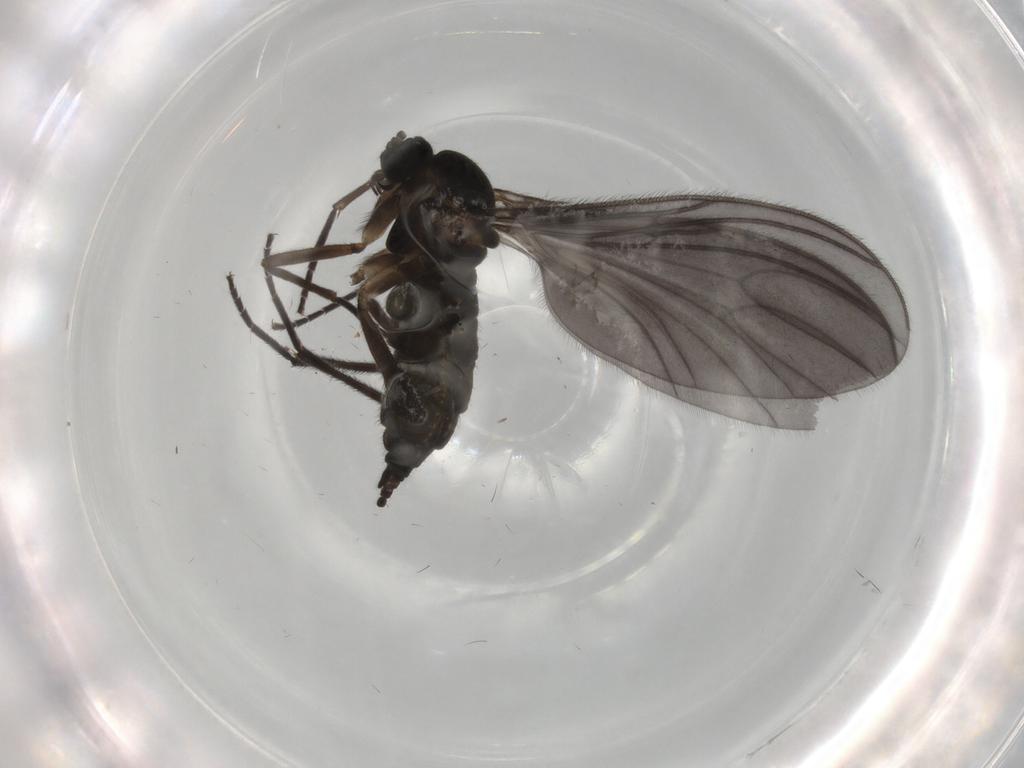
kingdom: Animalia
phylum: Arthropoda
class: Insecta
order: Diptera
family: Sciaridae
